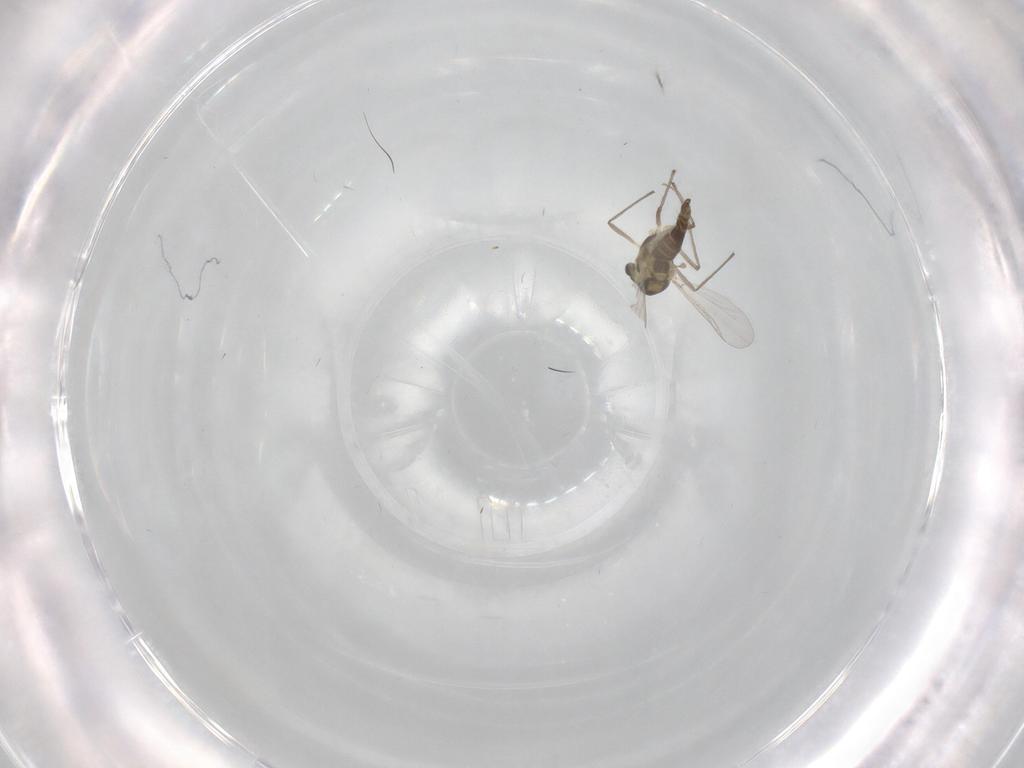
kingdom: Animalia
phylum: Arthropoda
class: Insecta
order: Diptera
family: Chironomidae
